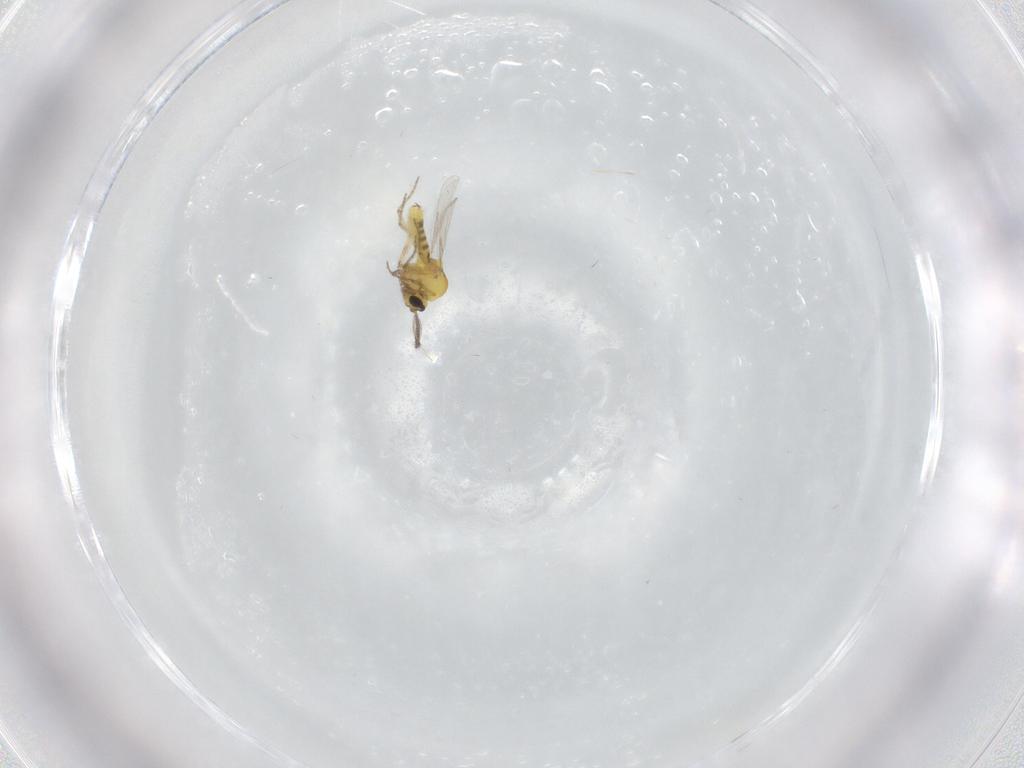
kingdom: Animalia
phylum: Arthropoda
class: Insecta
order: Diptera
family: Ceratopogonidae
